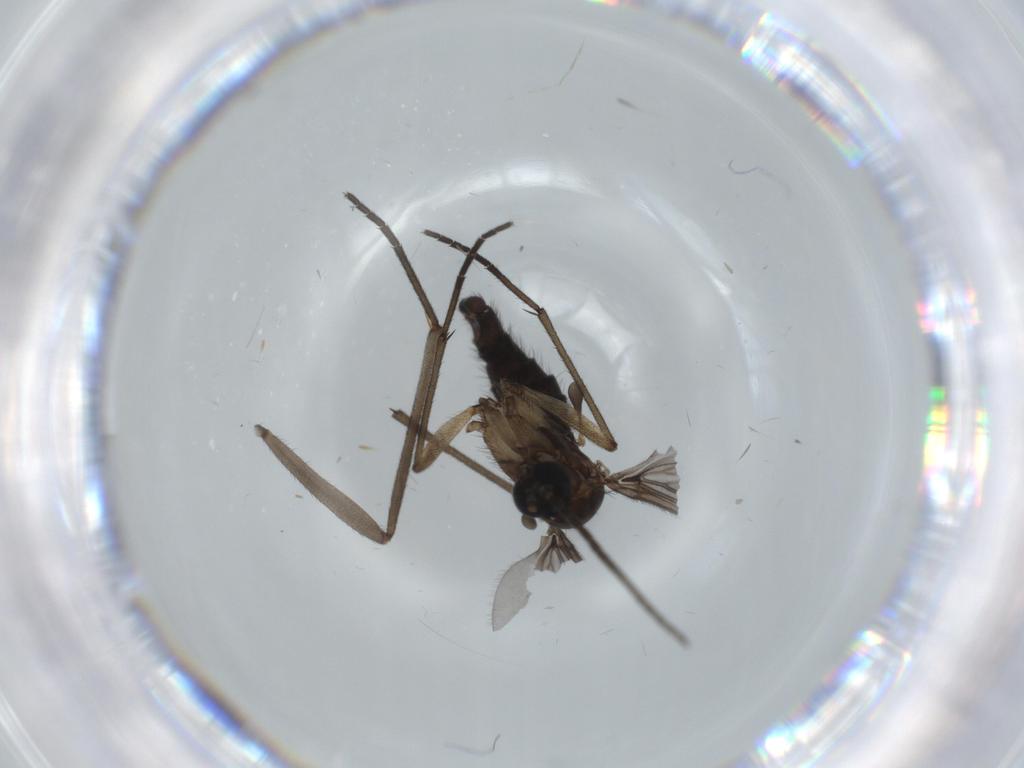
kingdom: Animalia
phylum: Arthropoda
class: Insecta
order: Diptera
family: Sciaridae
